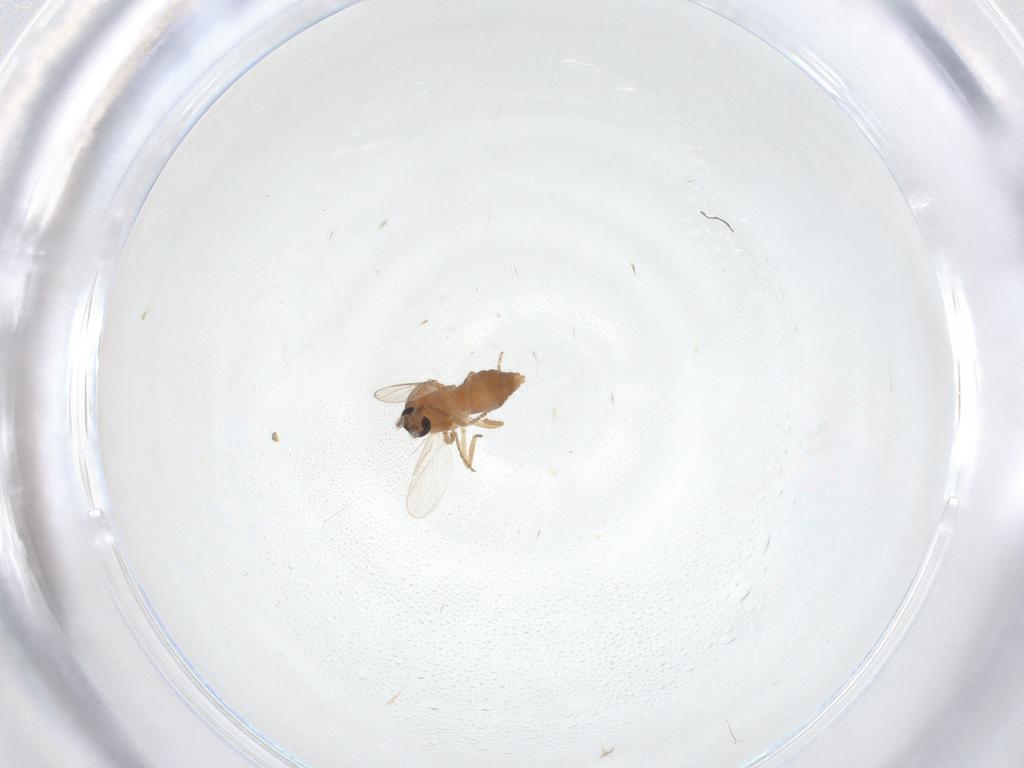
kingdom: Animalia
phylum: Arthropoda
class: Insecta
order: Diptera
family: Ceratopogonidae
